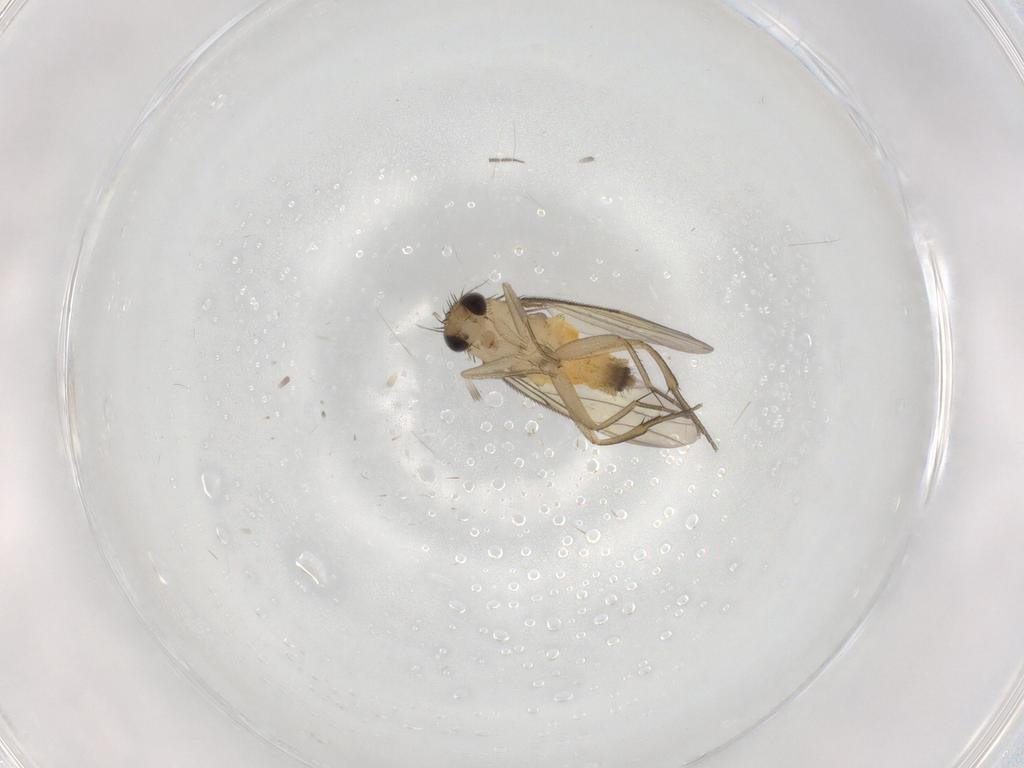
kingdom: Animalia
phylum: Arthropoda
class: Insecta
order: Diptera
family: Phoridae
